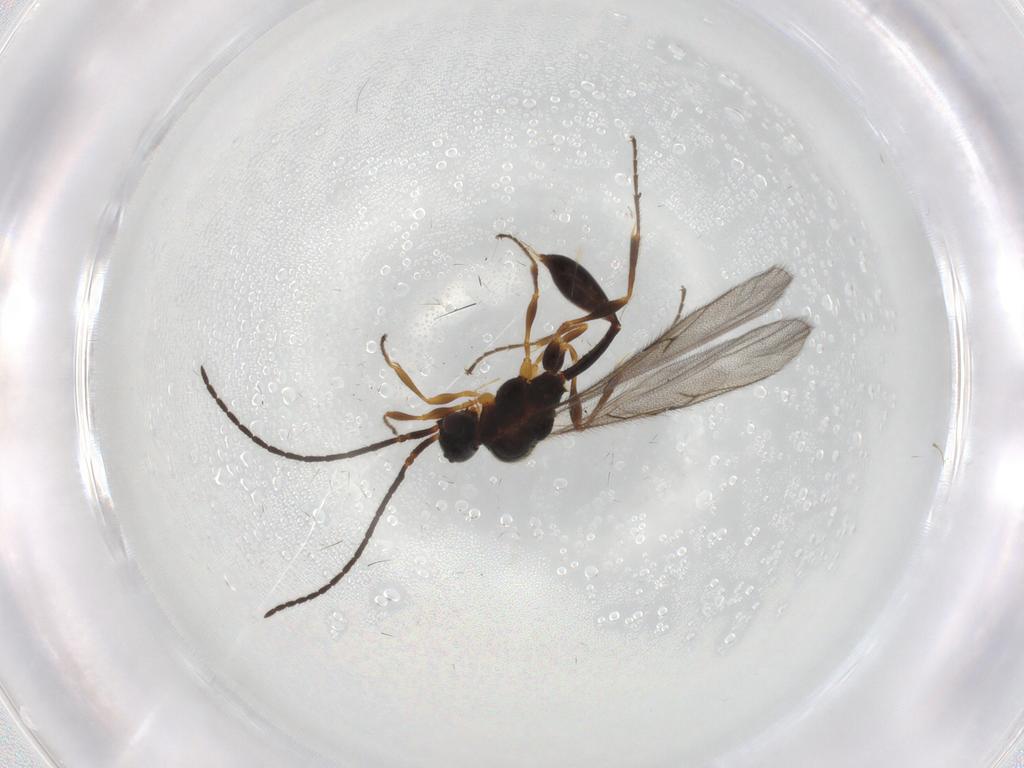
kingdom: Animalia
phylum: Arthropoda
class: Insecta
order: Hymenoptera
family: Diapriidae
